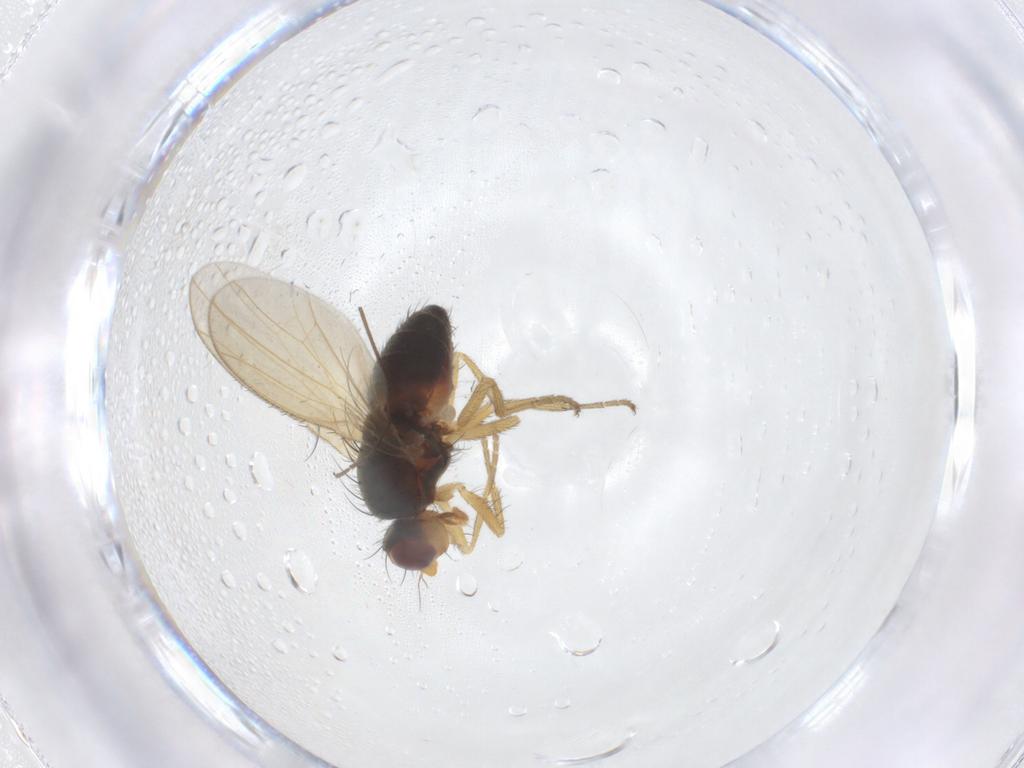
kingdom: Animalia
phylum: Arthropoda
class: Insecta
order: Diptera
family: Heleomyzidae
